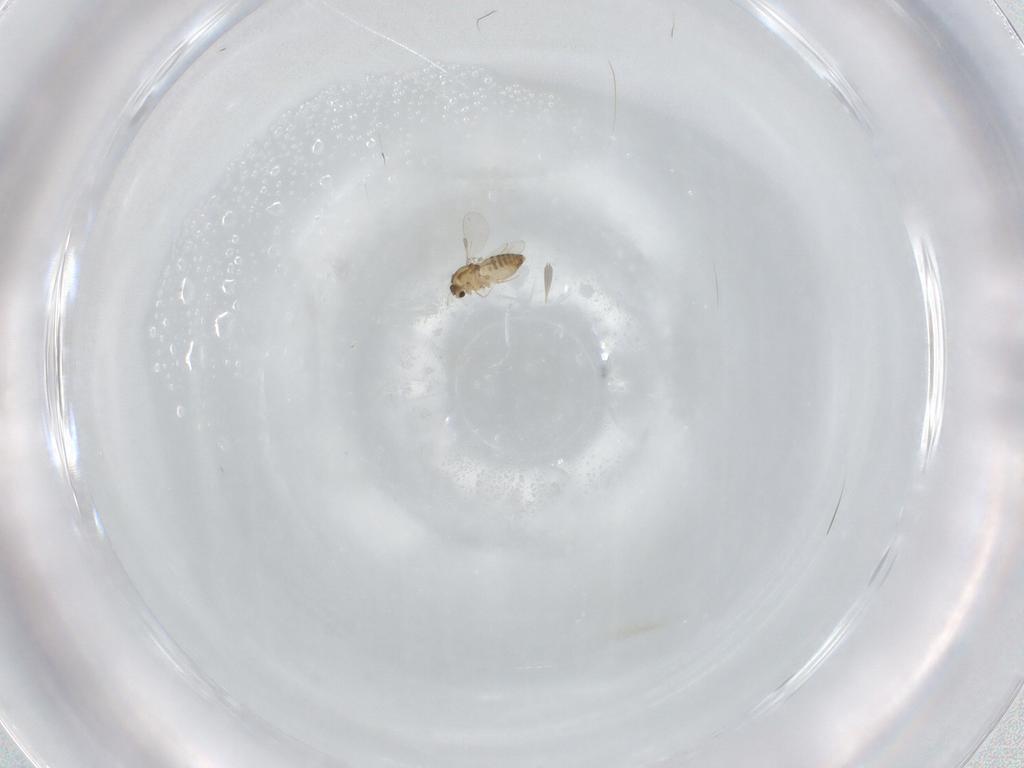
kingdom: Animalia
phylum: Arthropoda
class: Insecta
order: Diptera
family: Chironomidae
